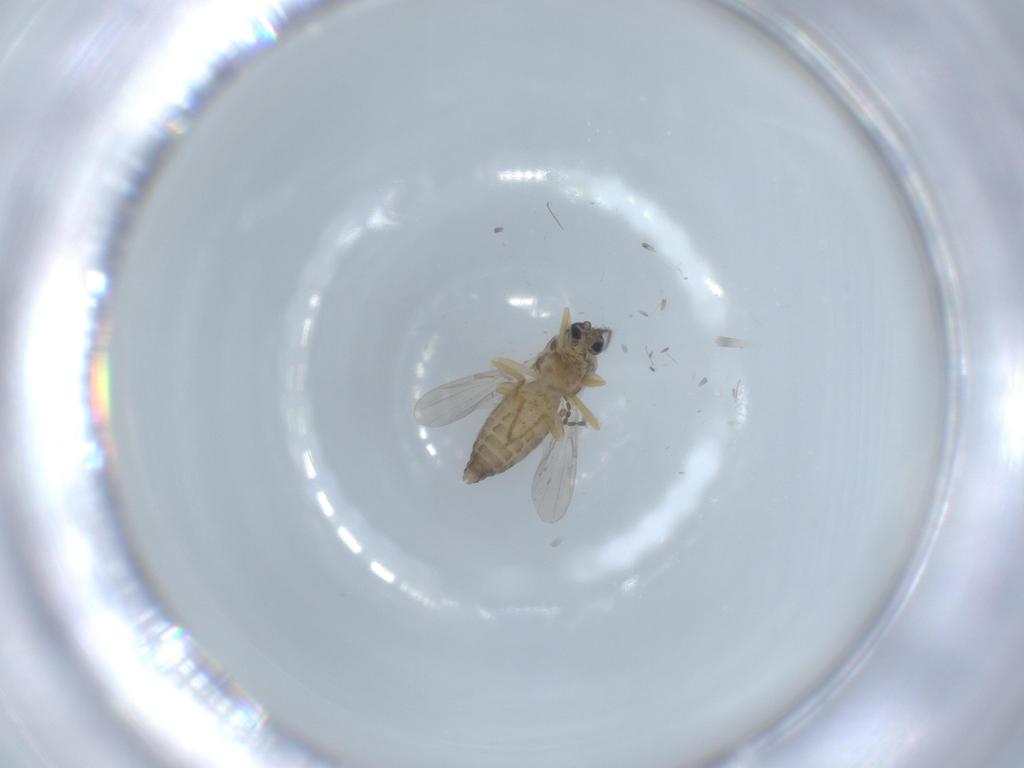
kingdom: Animalia
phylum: Arthropoda
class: Insecta
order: Diptera
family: Ceratopogonidae
